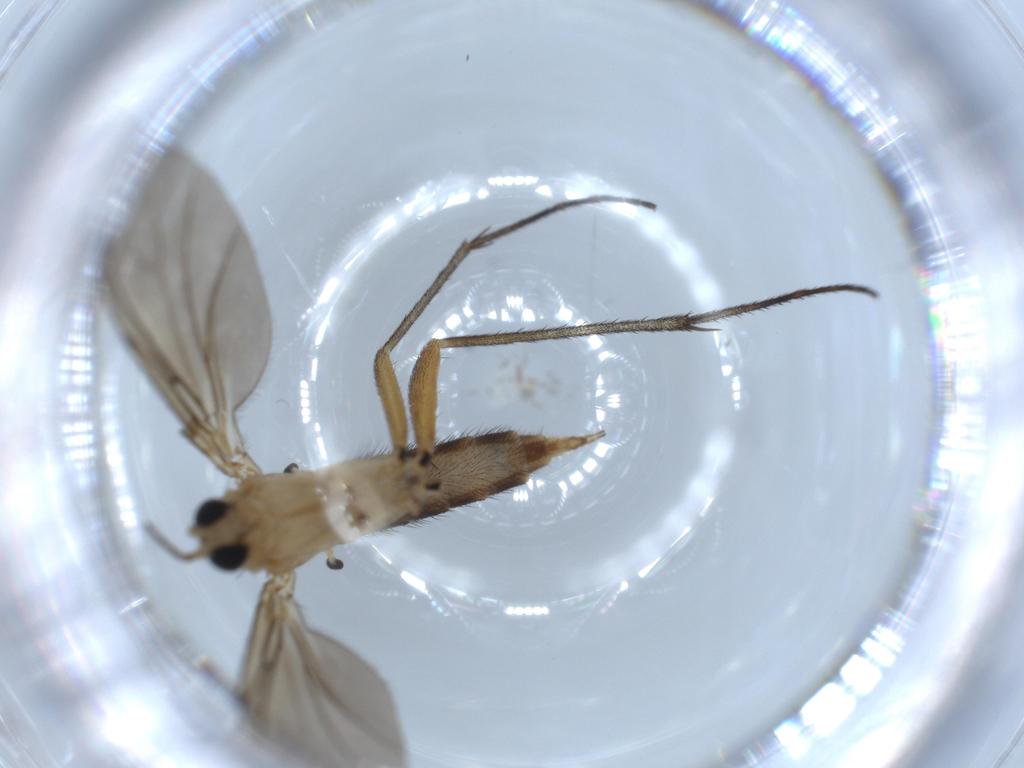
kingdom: Animalia
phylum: Arthropoda
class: Insecta
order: Diptera
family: Sciaridae
